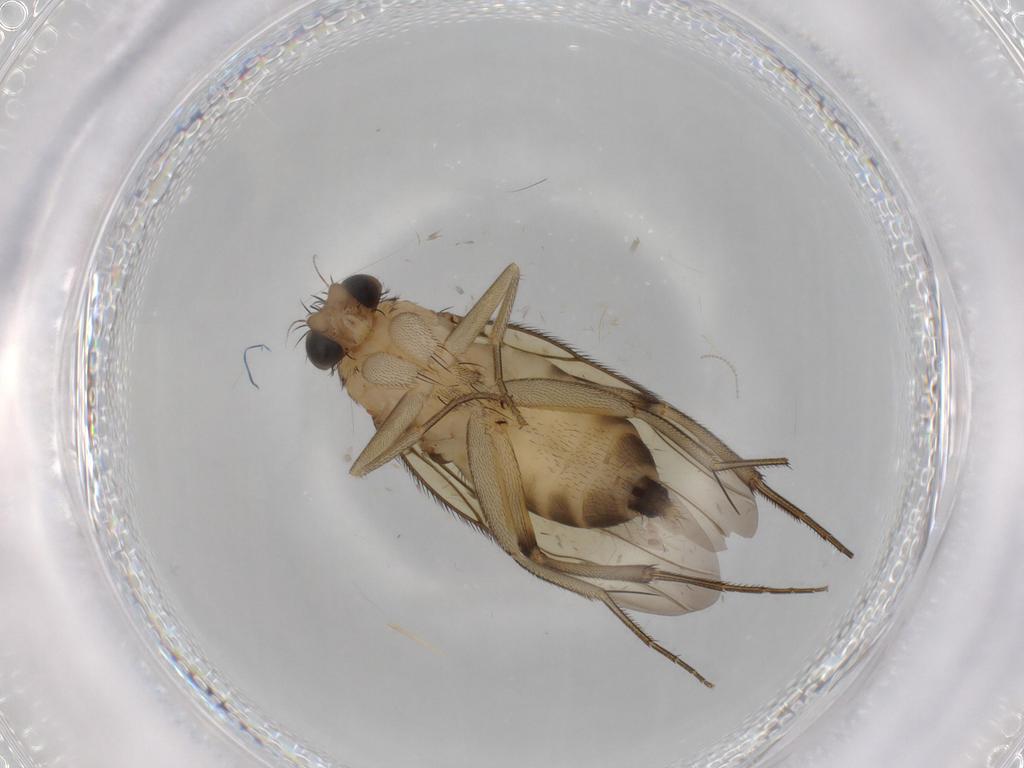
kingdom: Animalia
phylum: Arthropoda
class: Insecta
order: Diptera
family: Phoridae
